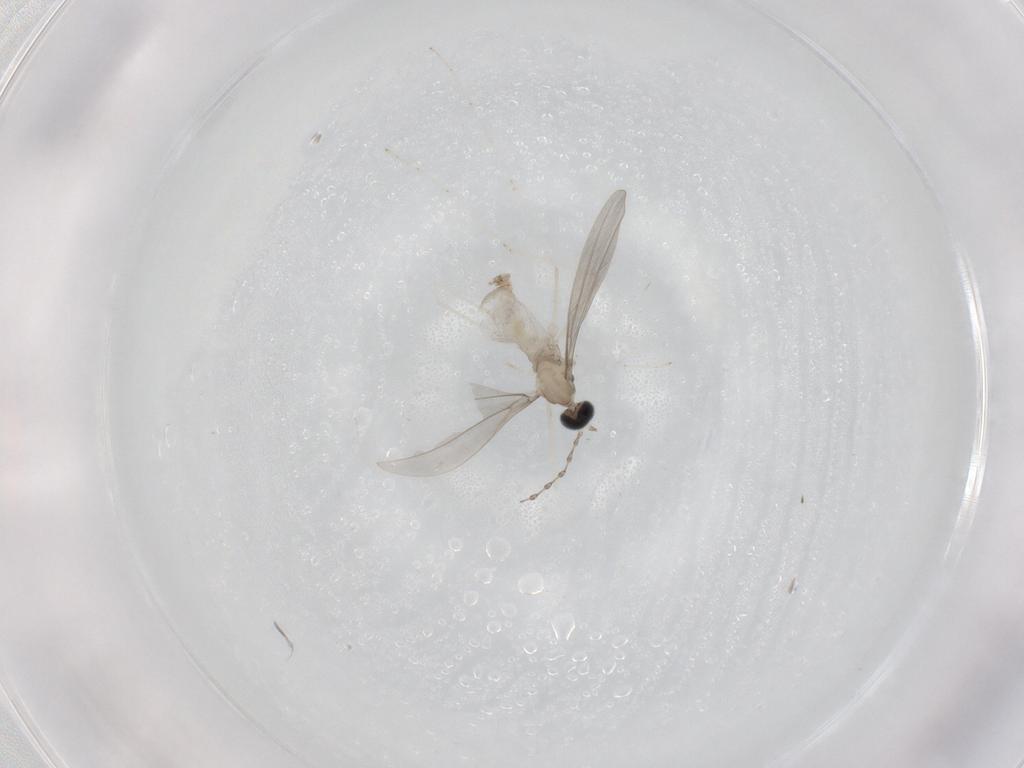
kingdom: Animalia
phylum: Arthropoda
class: Insecta
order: Diptera
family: Cecidomyiidae
